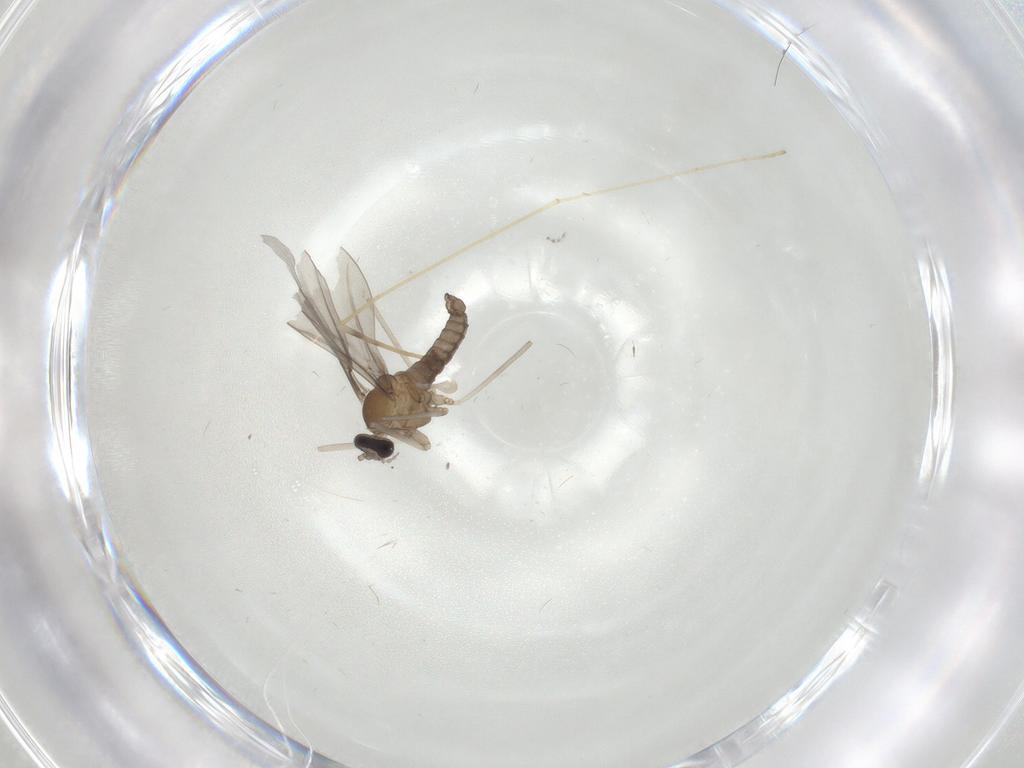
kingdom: Animalia
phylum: Arthropoda
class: Insecta
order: Diptera
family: Limoniidae
